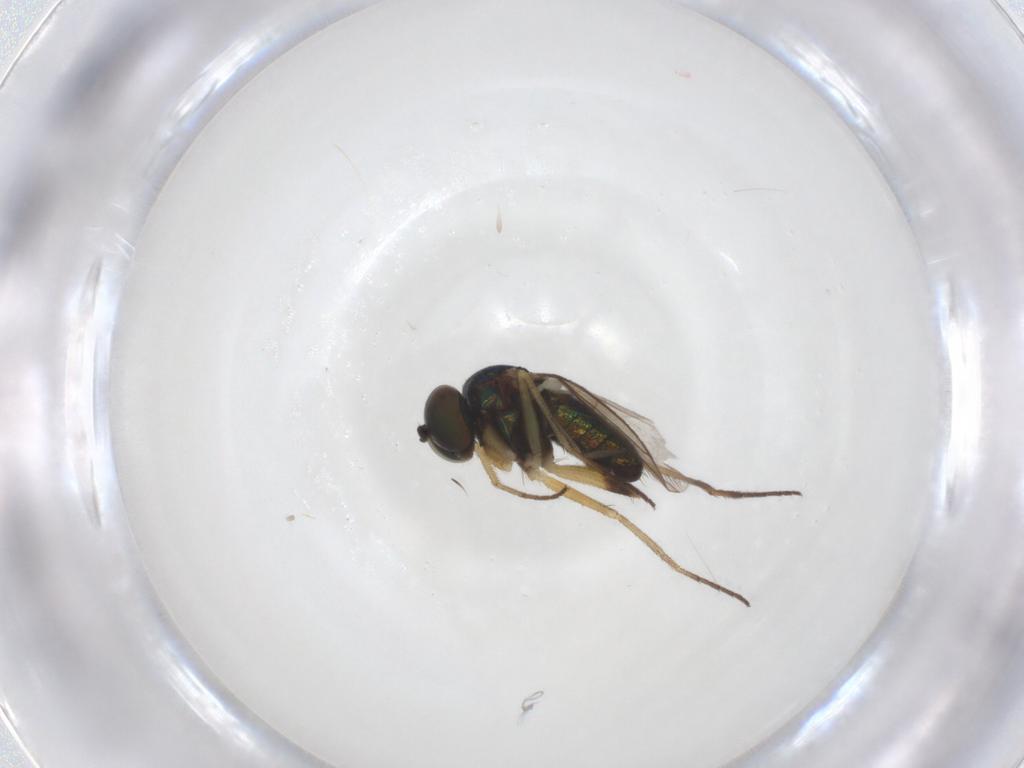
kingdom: Animalia
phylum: Arthropoda
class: Insecta
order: Diptera
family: Sciaridae
